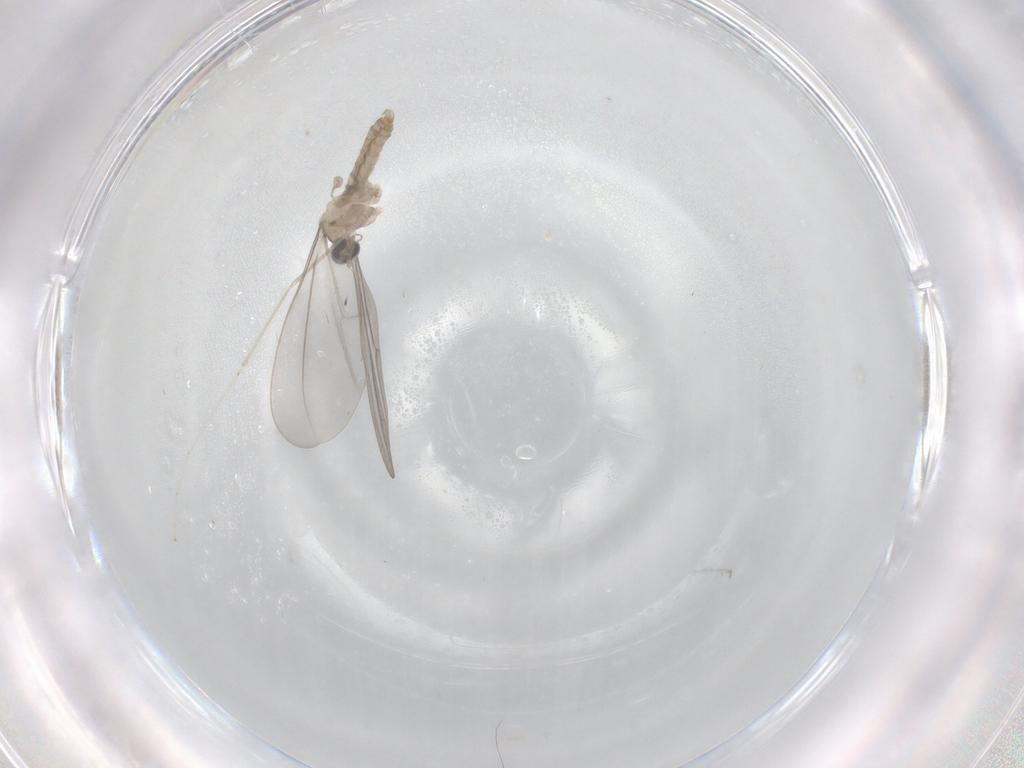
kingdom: Animalia
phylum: Arthropoda
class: Insecta
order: Diptera
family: Cecidomyiidae
